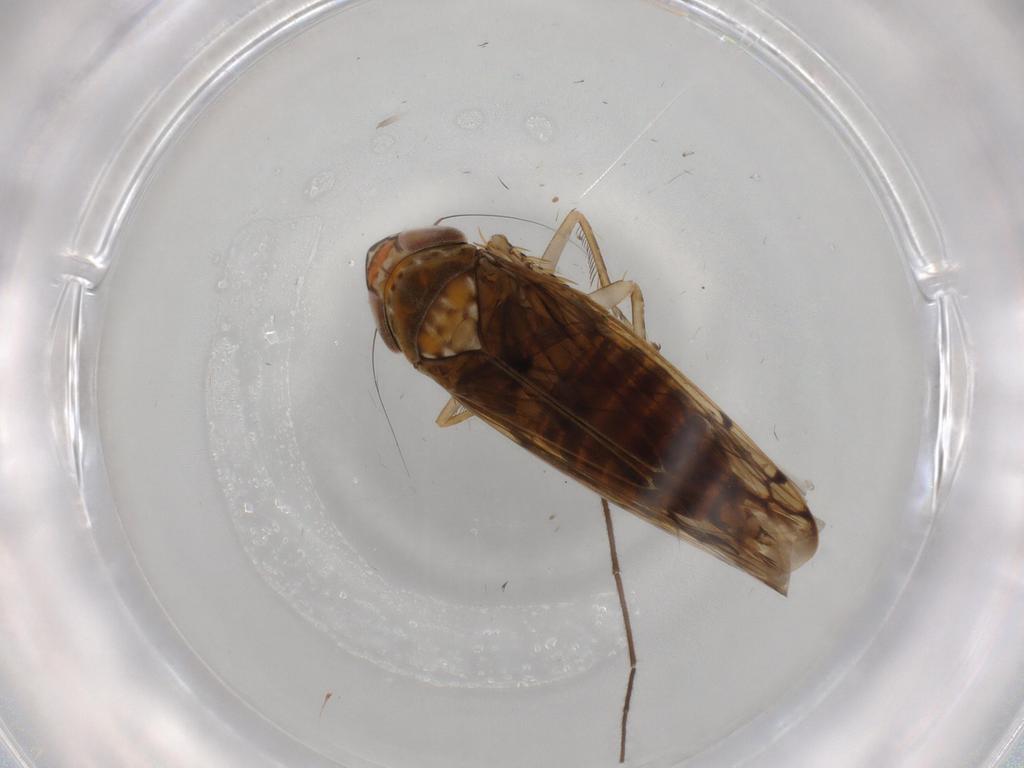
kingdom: Animalia
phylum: Arthropoda
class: Insecta
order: Hemiptera
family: Cicadellidae
